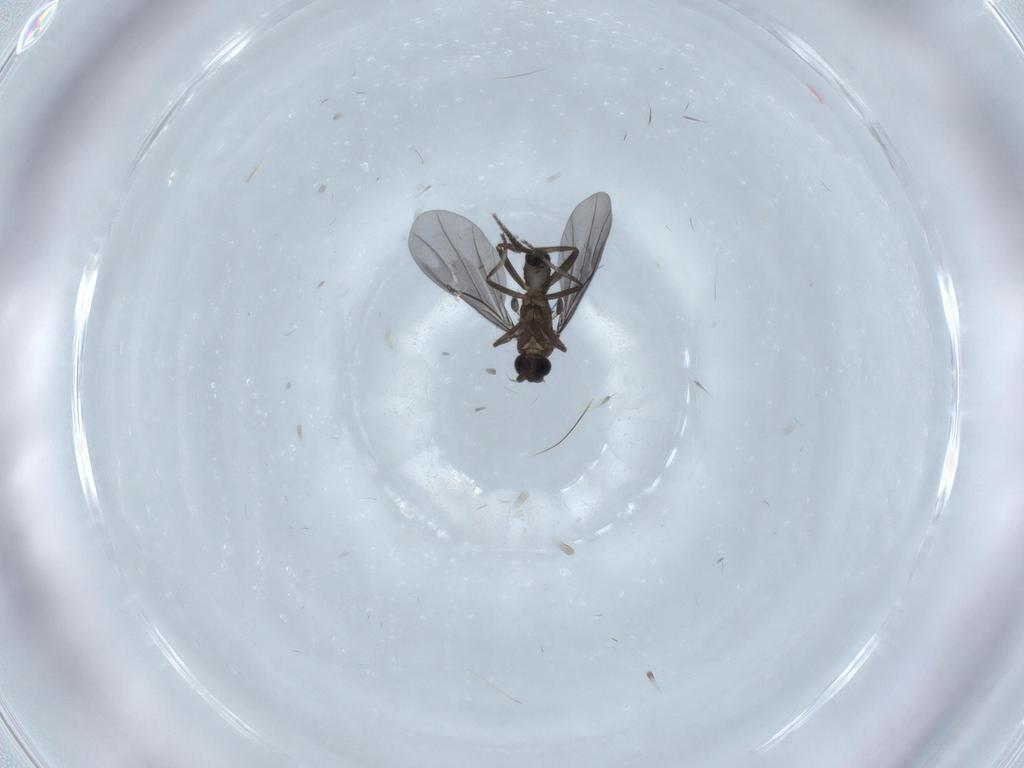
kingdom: Animalia
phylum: Arthropoda
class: Insecta
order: Diptera
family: Phoridae
